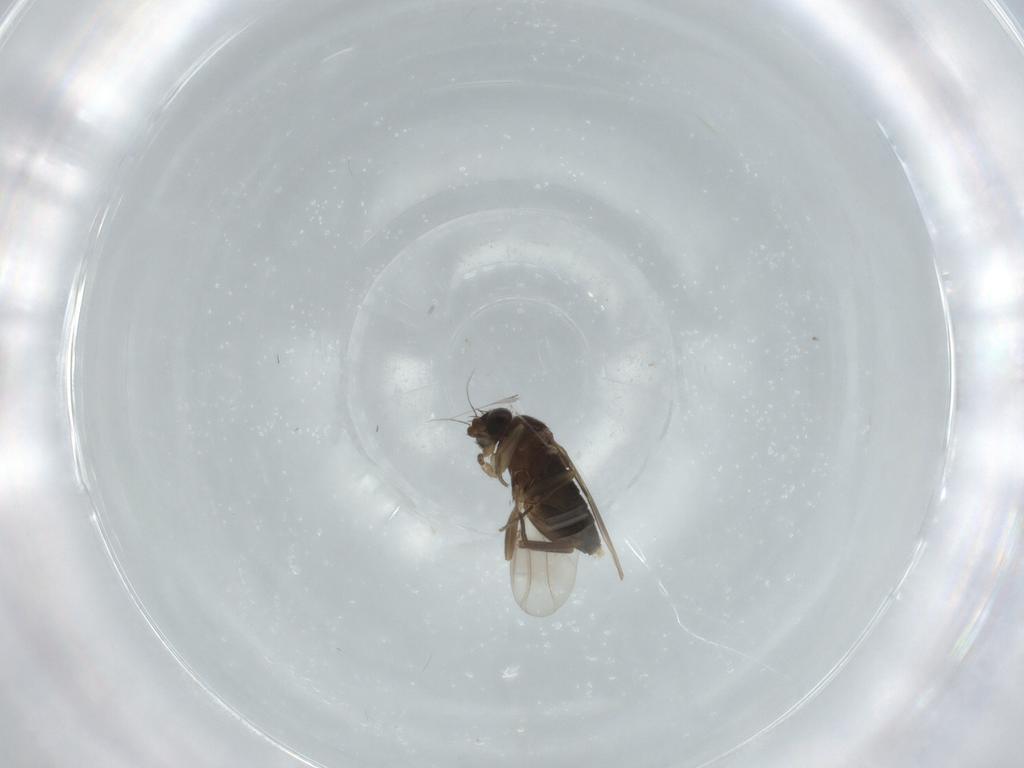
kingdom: Animalia
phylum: Arthropoda
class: Insecta
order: Diptera
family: Phoridae
